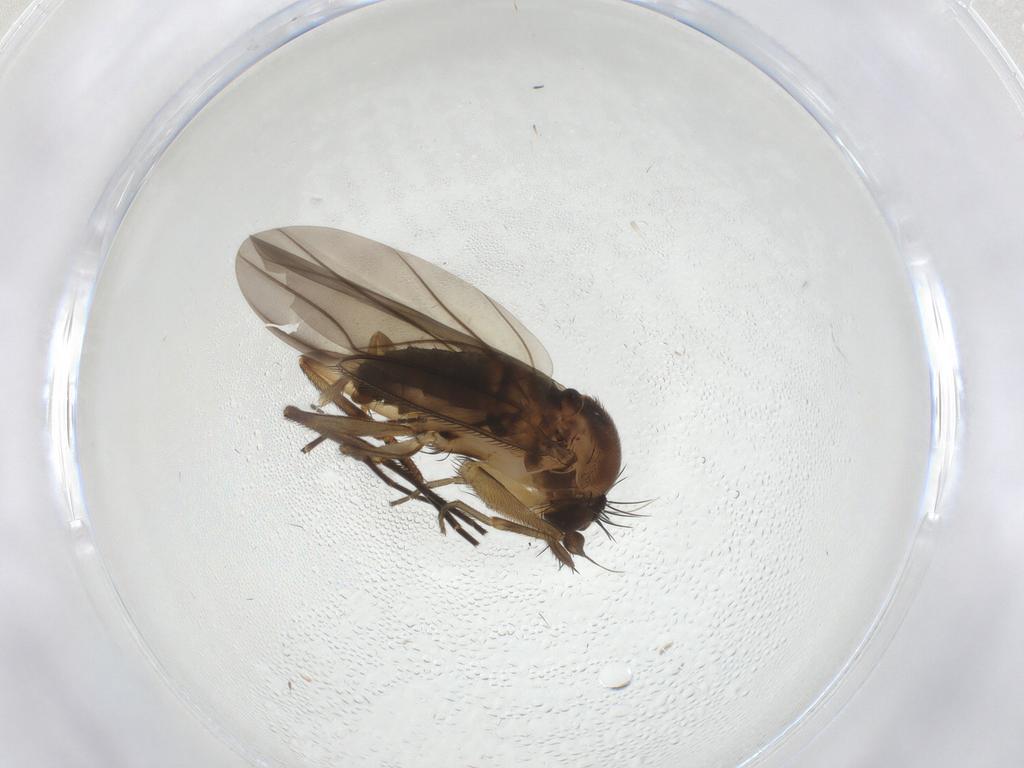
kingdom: Animalia
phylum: Arthropoda
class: Insecta
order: Diptera
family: Phoridae
